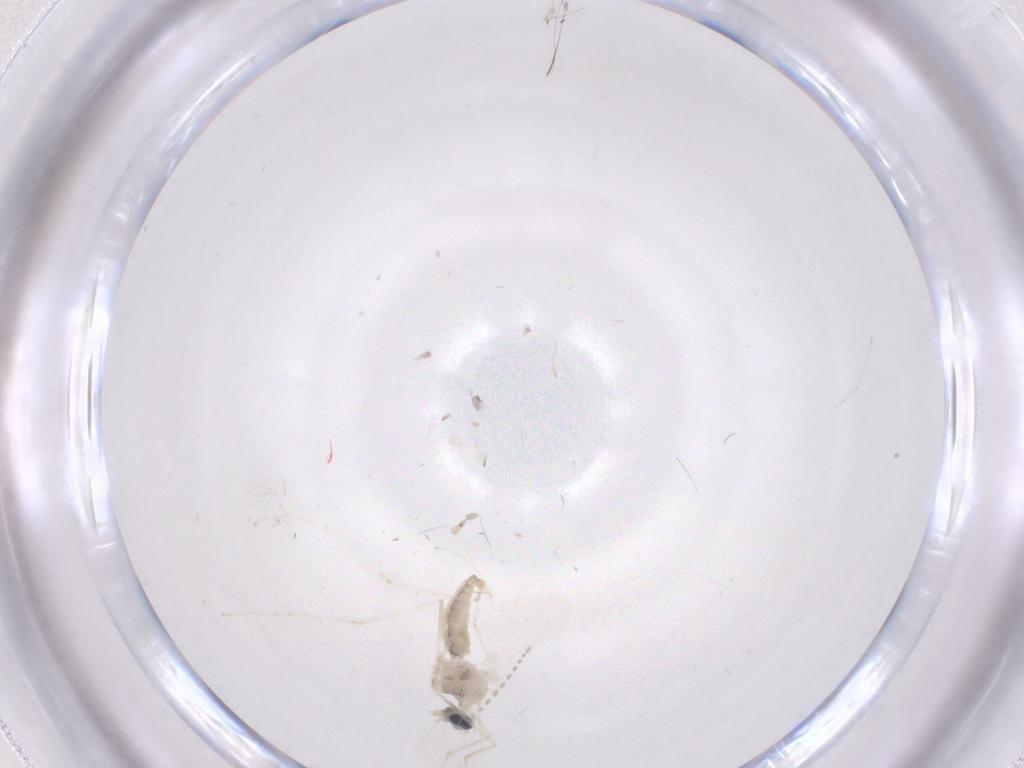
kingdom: Animalia
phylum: Arthropoda
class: Insecta
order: Diptera
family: Cecidomyiidae
